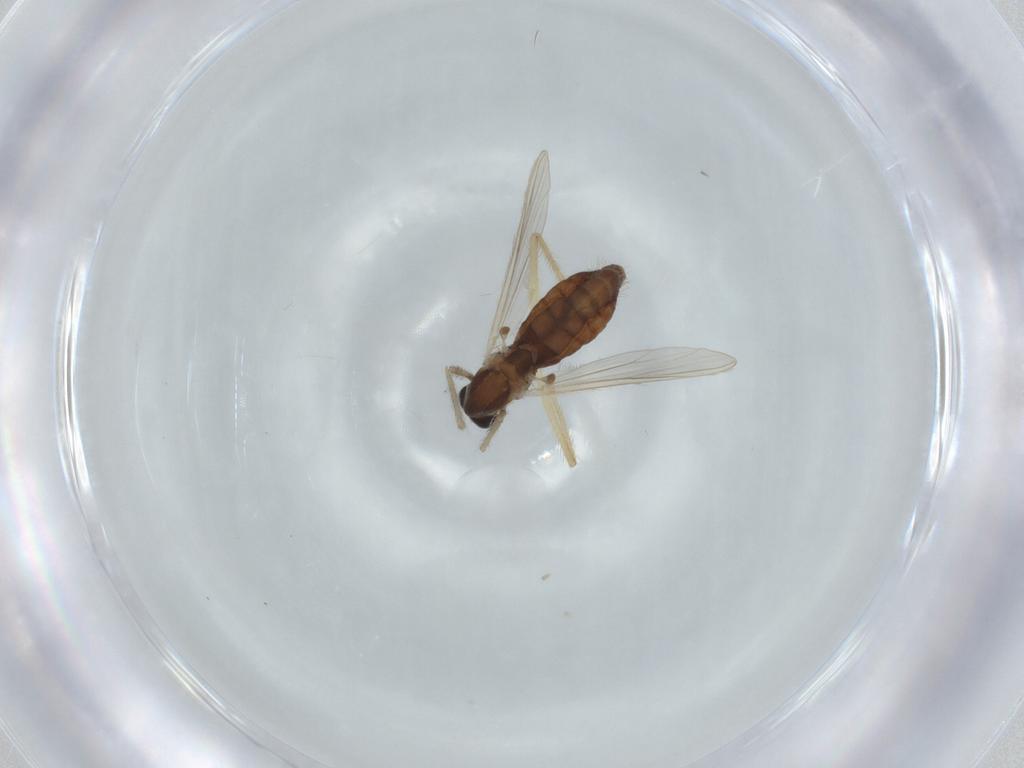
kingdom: Animalia
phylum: Arthropoda
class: Insecta
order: Diptera
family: Chironomidae
